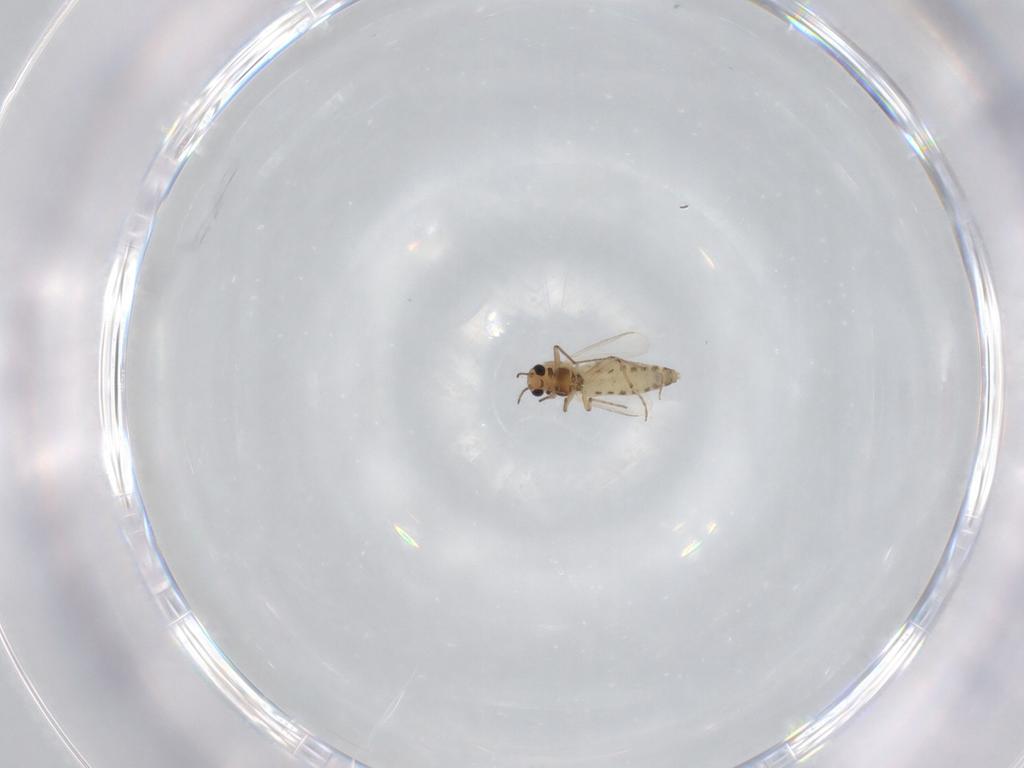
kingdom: Animalia
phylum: Arthropoda
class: Insecta
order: Diptera
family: Chironomidae
